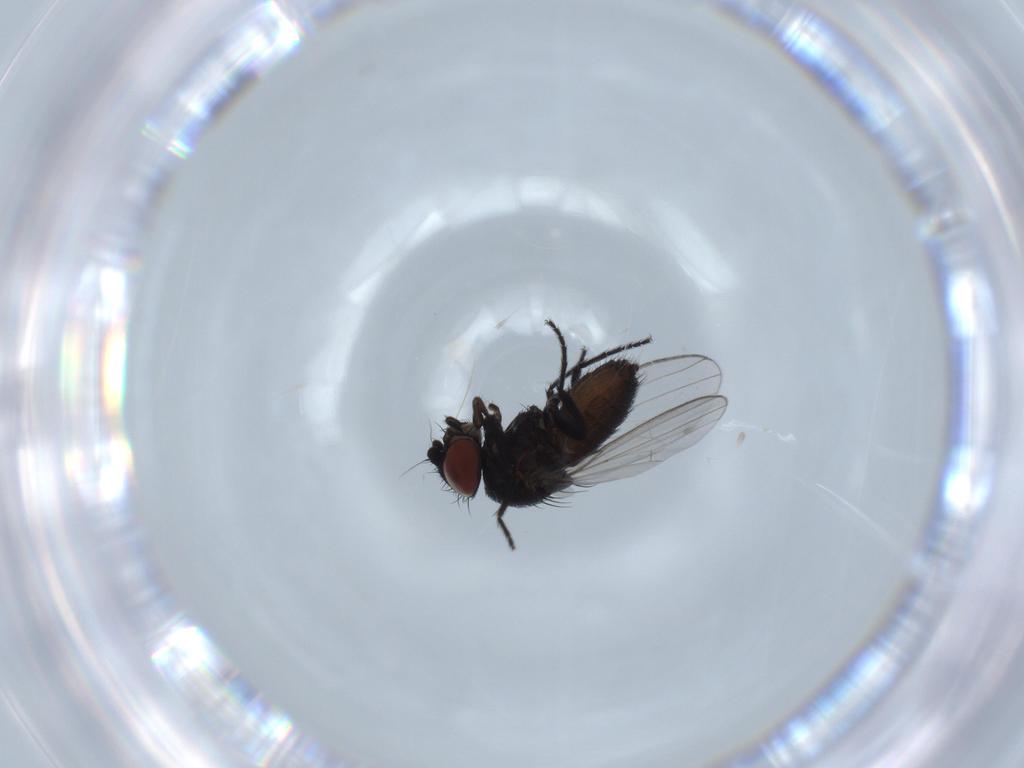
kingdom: Animalia
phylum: Arthropoda
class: Insecta
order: Diptera
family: Milichiidae
